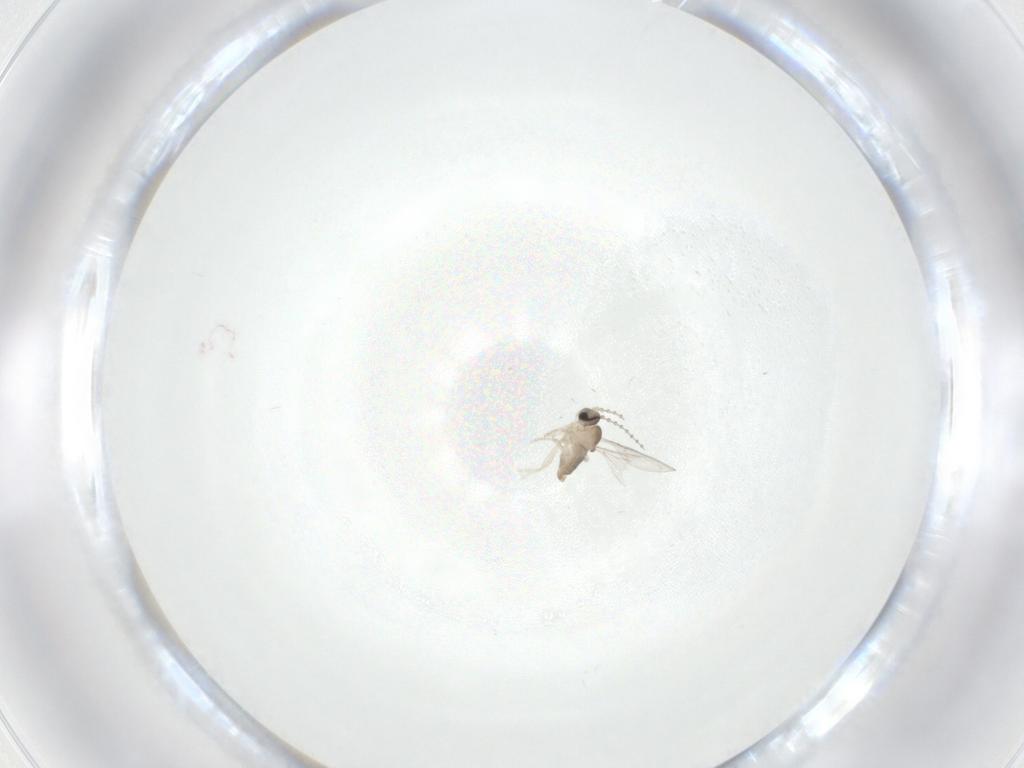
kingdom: Animalia
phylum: Arthropoda
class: Insecta
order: Diptera
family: Cecidomyiidae
